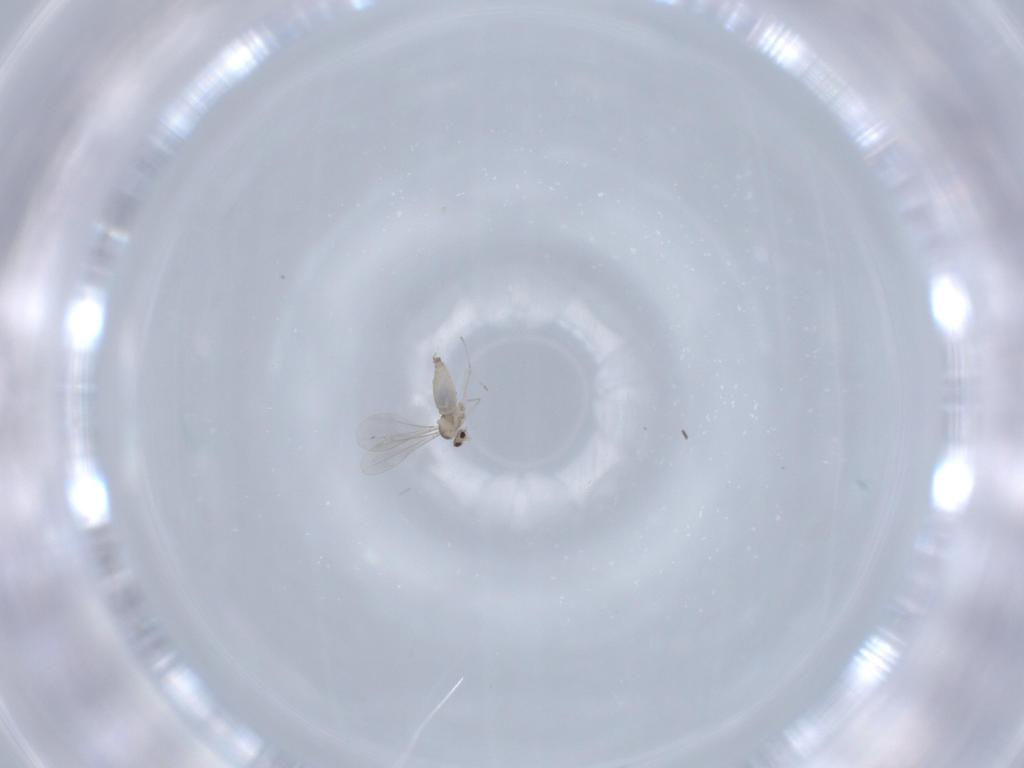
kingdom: Animalia
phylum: Arthropoda
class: Insecta
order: Diptera
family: Cecidomyiidae
